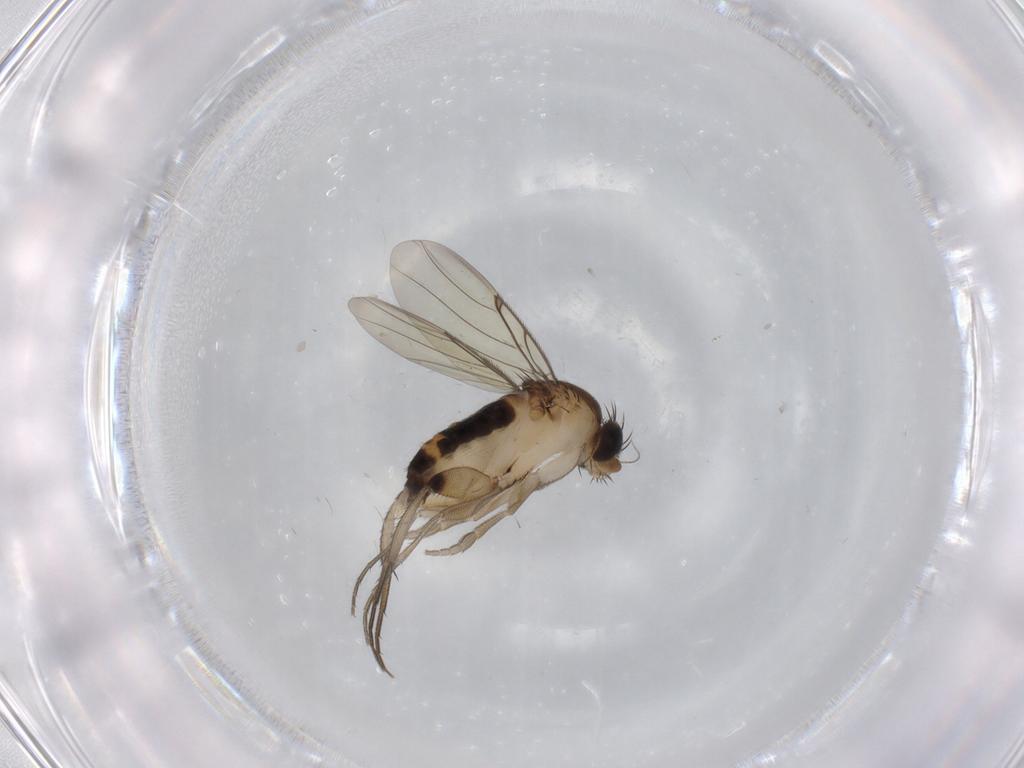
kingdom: Animalia
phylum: Arthropoda
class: Insecta
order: Diptera
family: Phoridae
